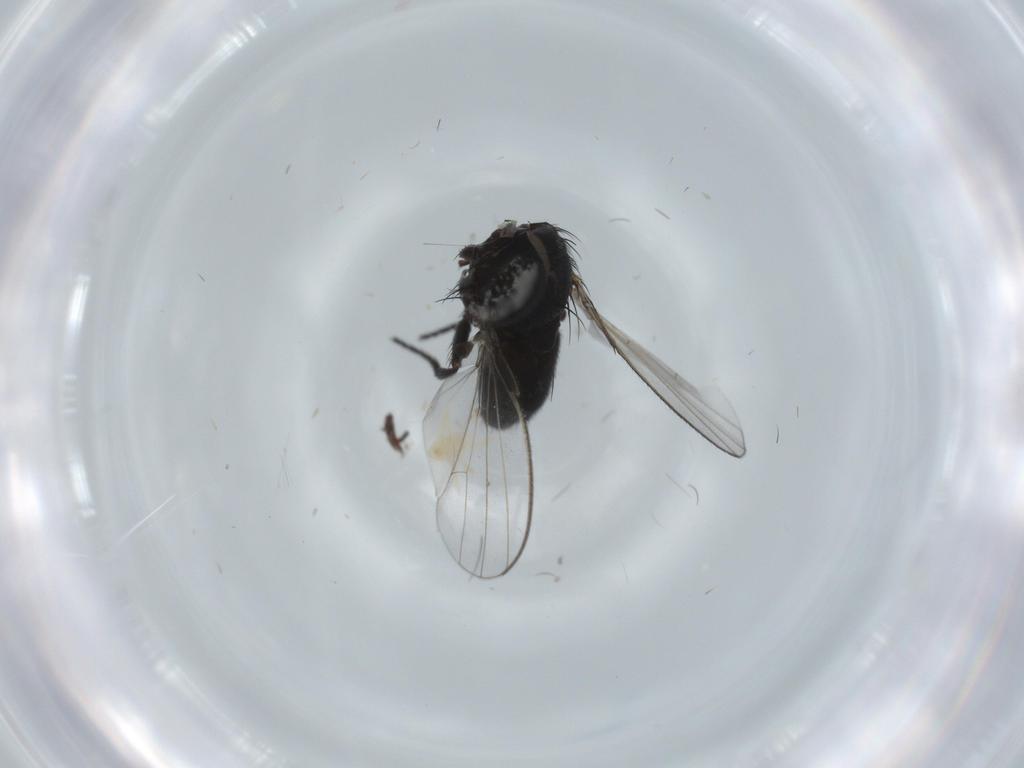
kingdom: Animalia
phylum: Arthropoda
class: Insecta
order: Diptera
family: Milichiidae
